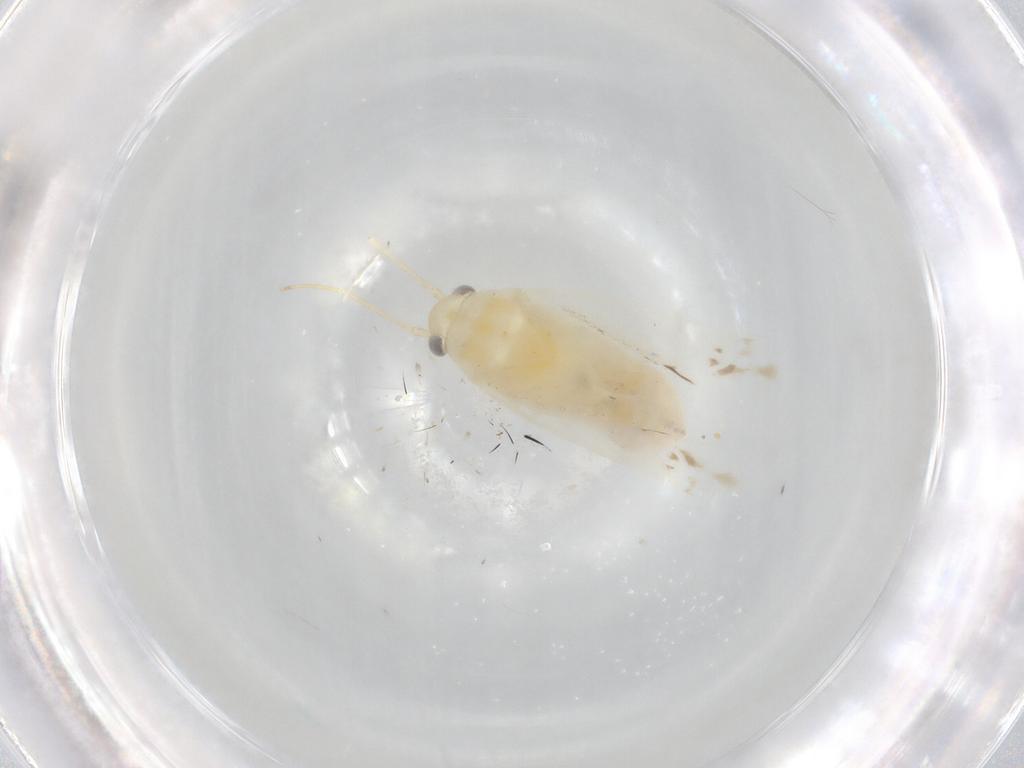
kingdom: Animalia
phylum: Arthropoda
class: Insecta
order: Hemiptera
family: Miridae
